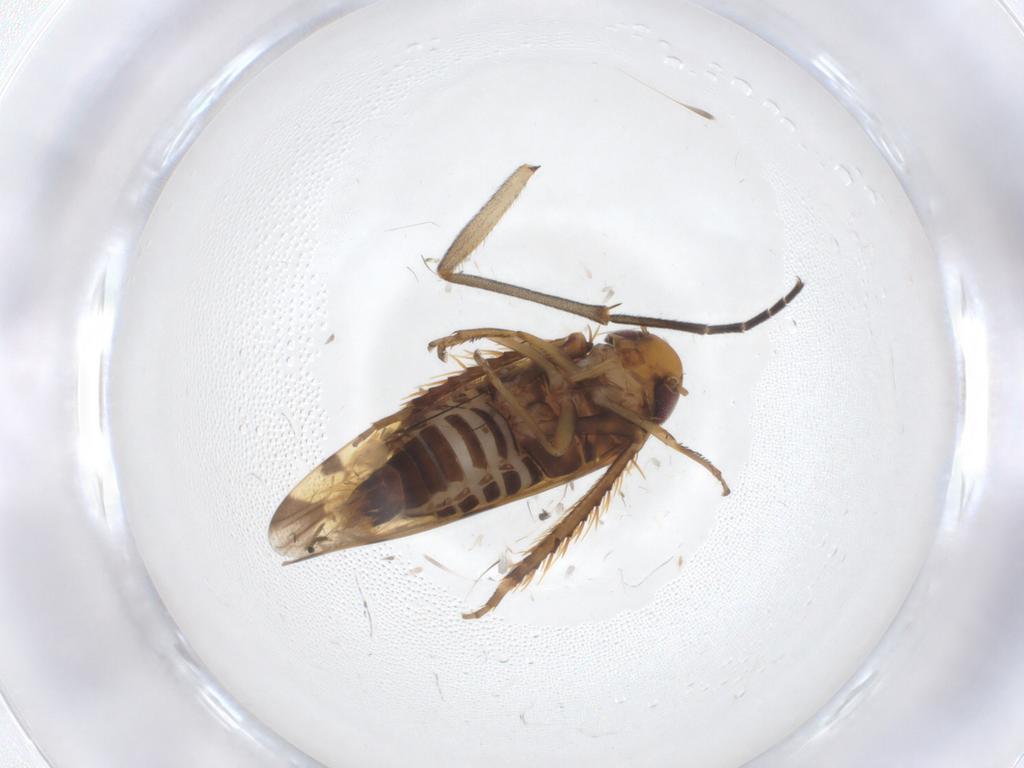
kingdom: Animalia
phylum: Arthropoda
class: Insecta
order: Hemiptera
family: Cicadellidae
